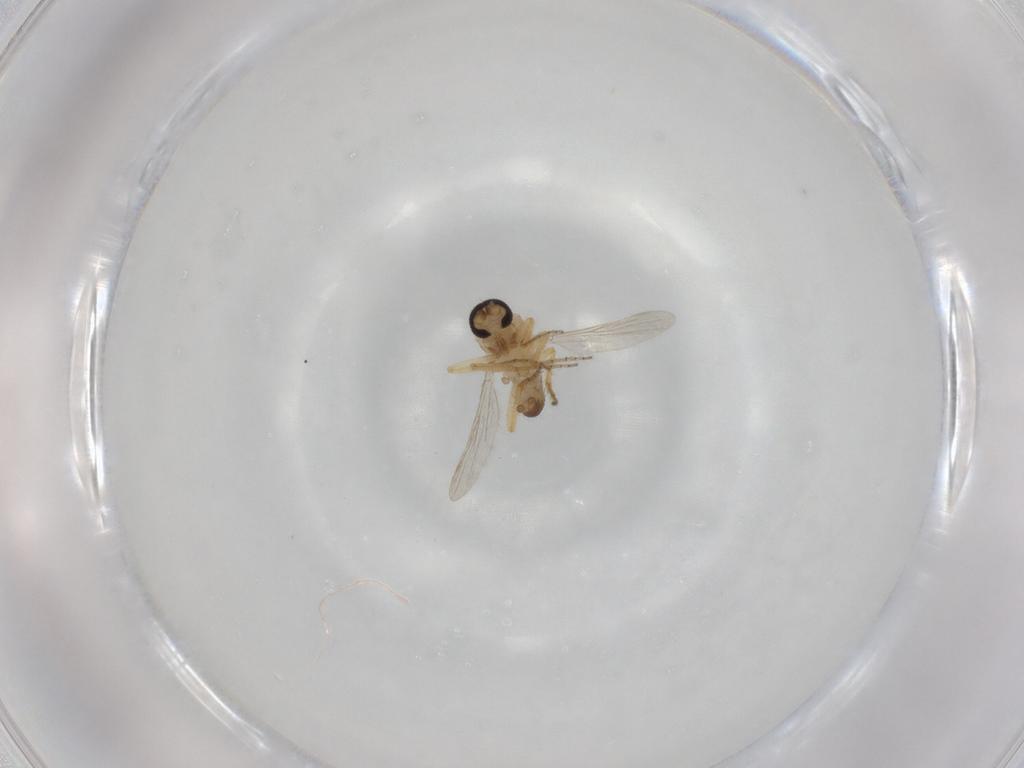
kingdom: Animalia
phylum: Arthropoda
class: Insecta
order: Diptera
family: Ceratopogonidae
